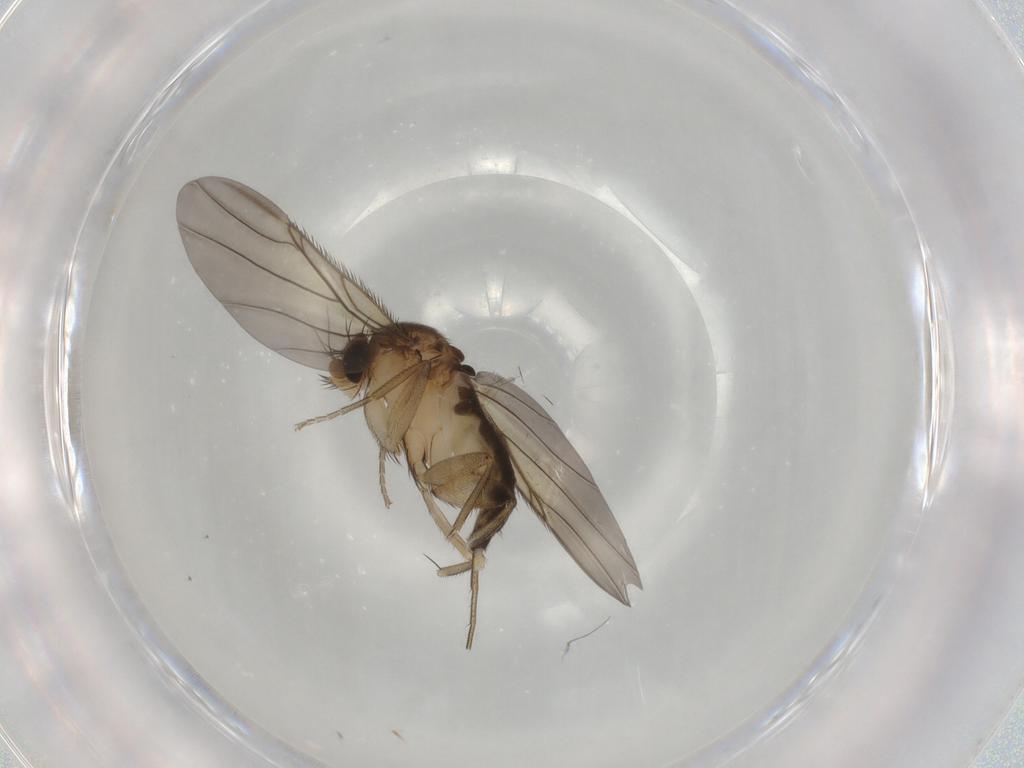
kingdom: Animalia
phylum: Arthropoda
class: Insecta
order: Diptera
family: Phoridae
